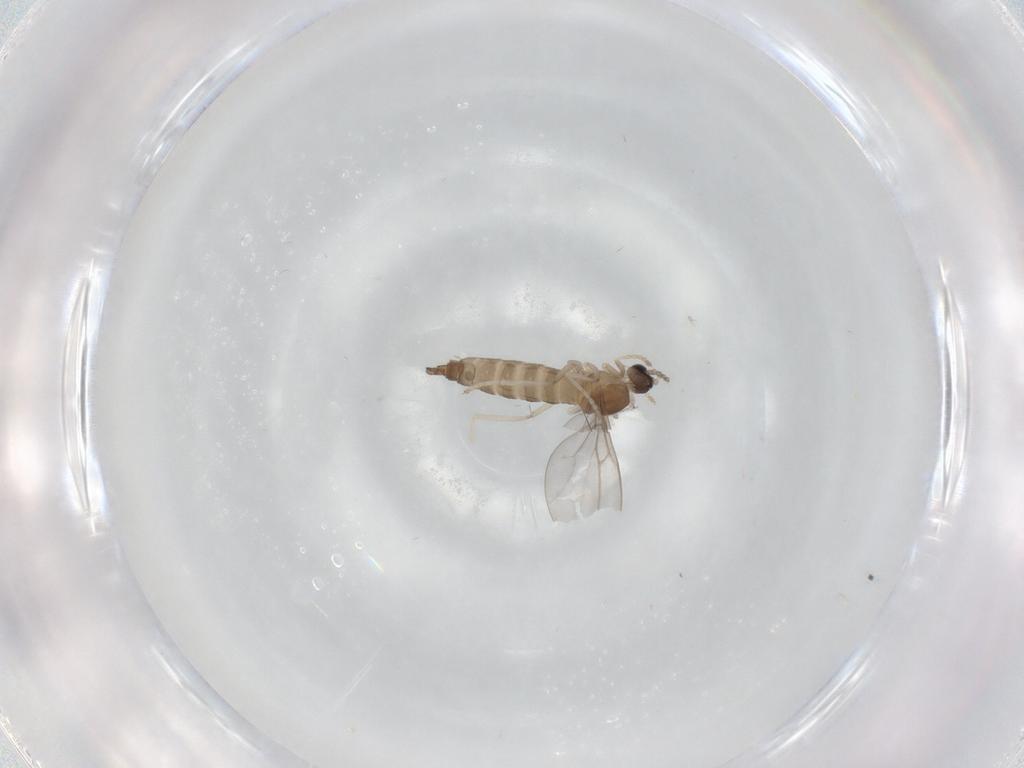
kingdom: Animalia
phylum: Arthropoda
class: Insecta
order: Diptera
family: Cecidomyiidae
